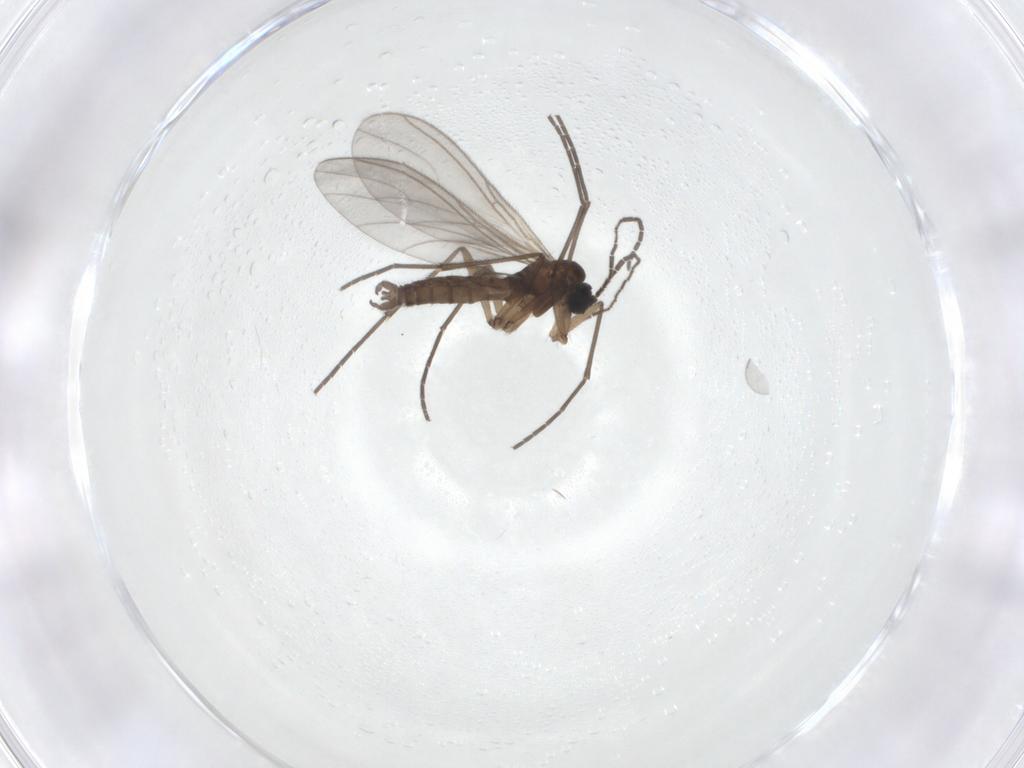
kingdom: Animalia
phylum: Arthropoda
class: Insecta
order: Diptera
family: Sciaridae
